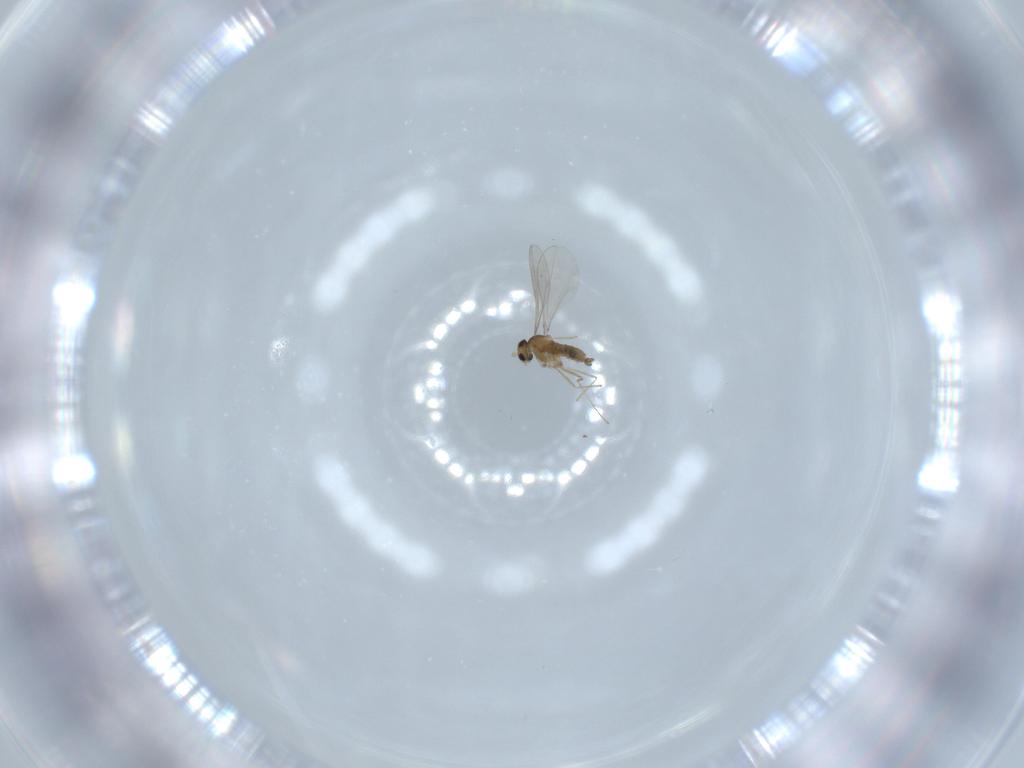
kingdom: Animalia
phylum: Arthropoda
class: Insecta
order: Diptera
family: Cecidomyiidae
